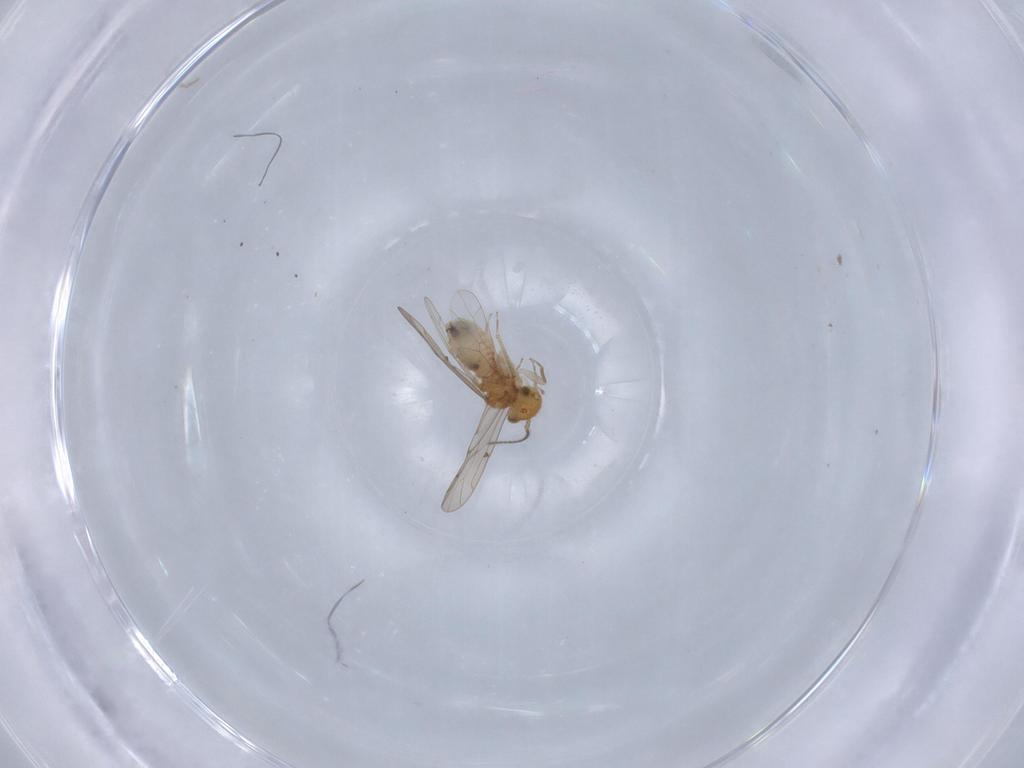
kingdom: Animalia
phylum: Arthropoda
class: Insecta
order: Psocodea
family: Ectopsocidae
